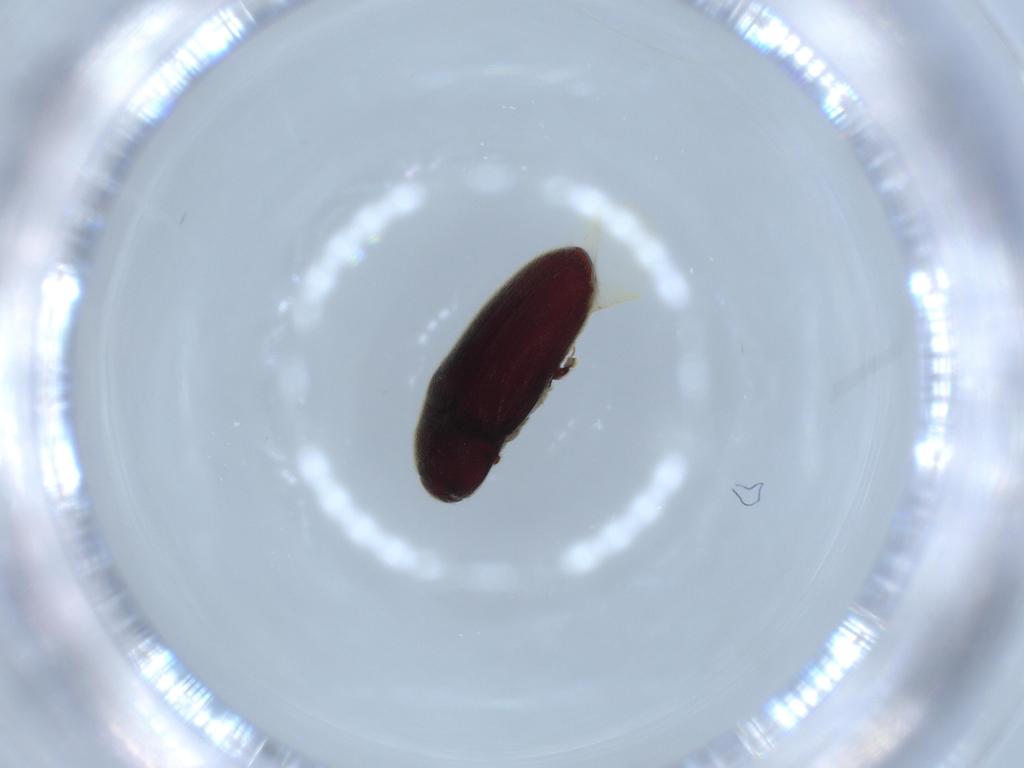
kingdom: Animalia
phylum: Arthropoda
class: Insecta
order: Coleoptera
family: Throscidae
